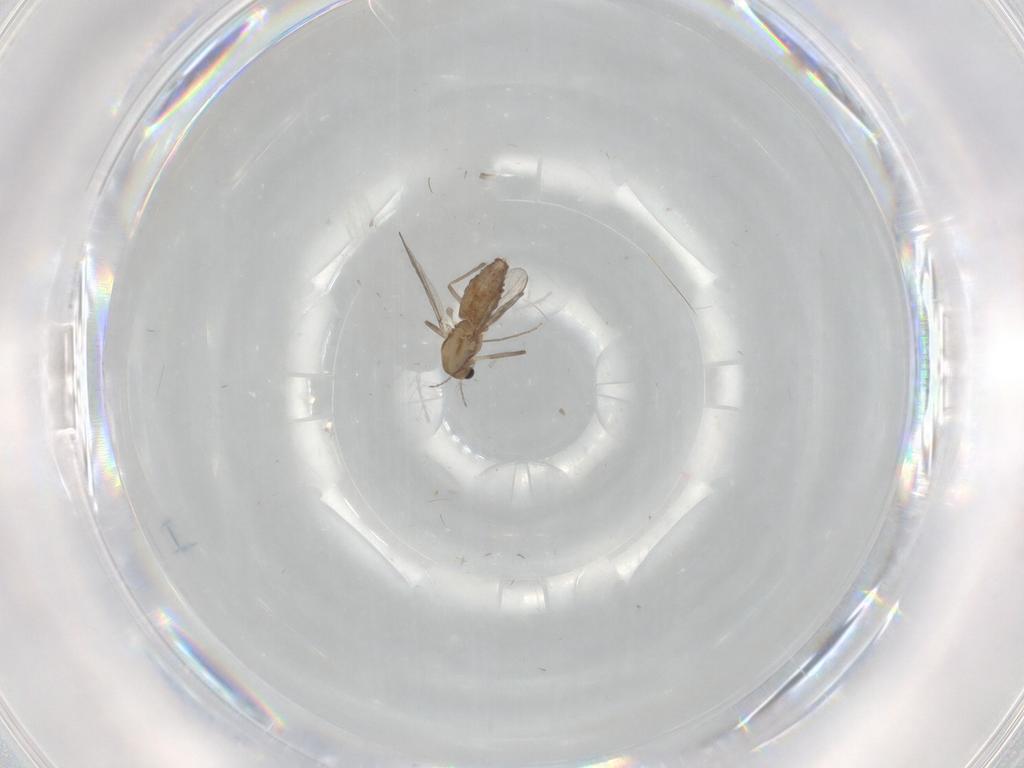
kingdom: Animalia
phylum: Arthropoda
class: Insecta
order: Diptera
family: Chironomidae
